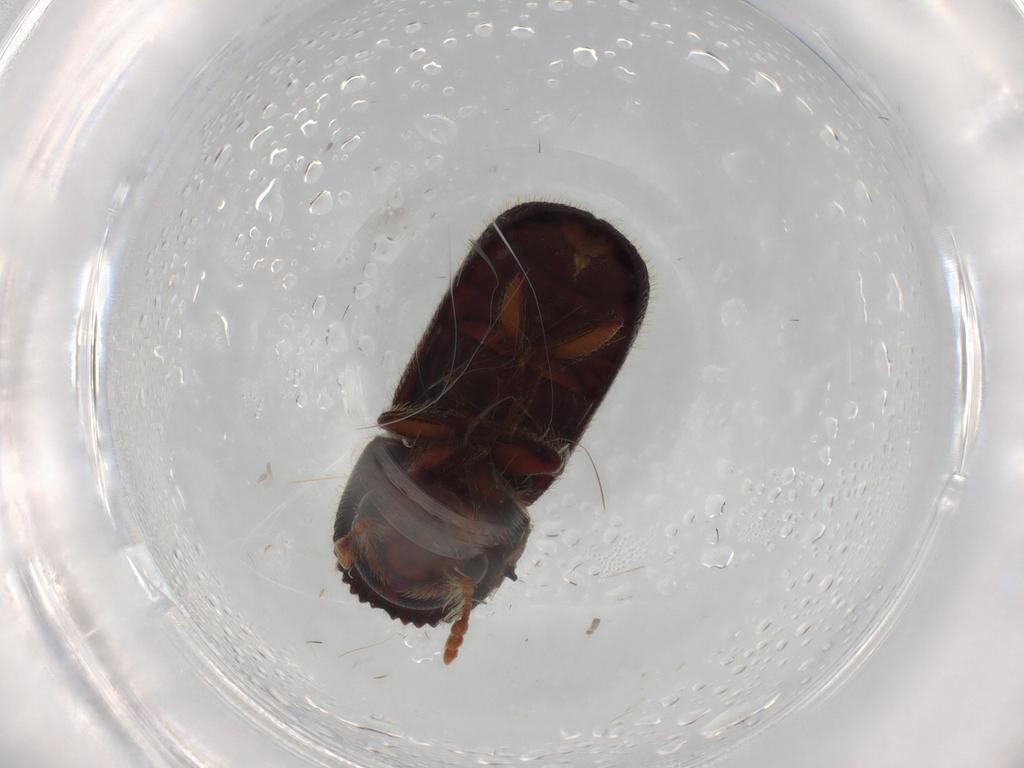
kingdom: Animalia
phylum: Arthropoda
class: Insecta
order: Coleoptera
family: Bostrichidae
